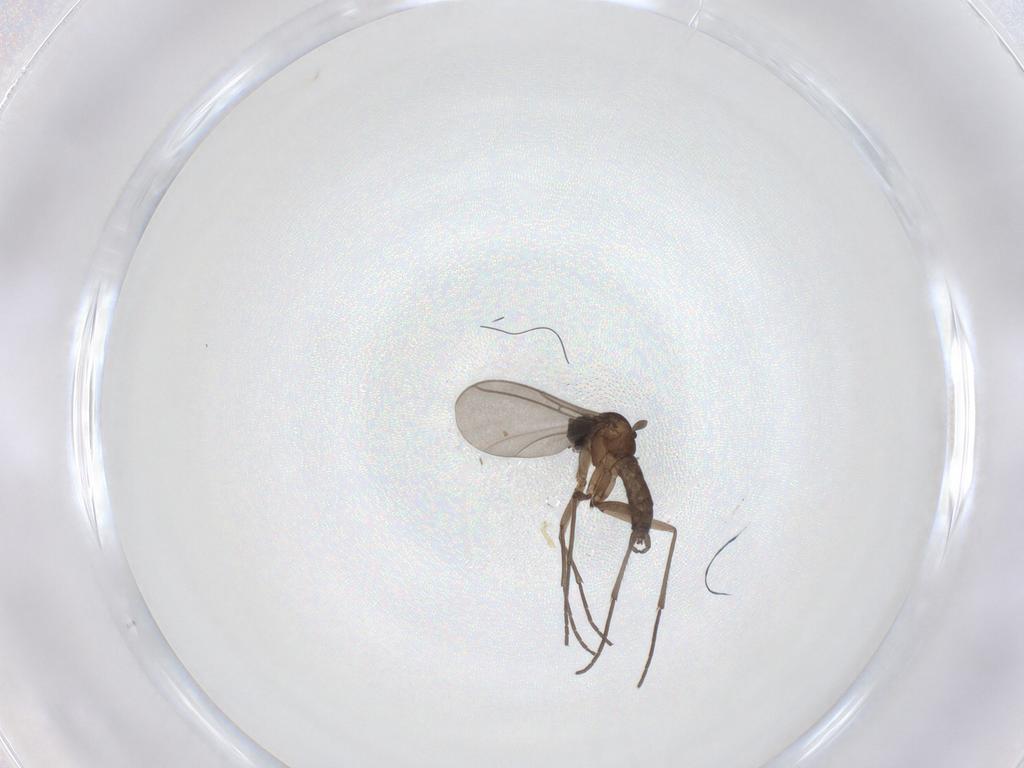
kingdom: Animalia
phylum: Arthropoda
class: Insecta
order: Diptera
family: Sciaridae
